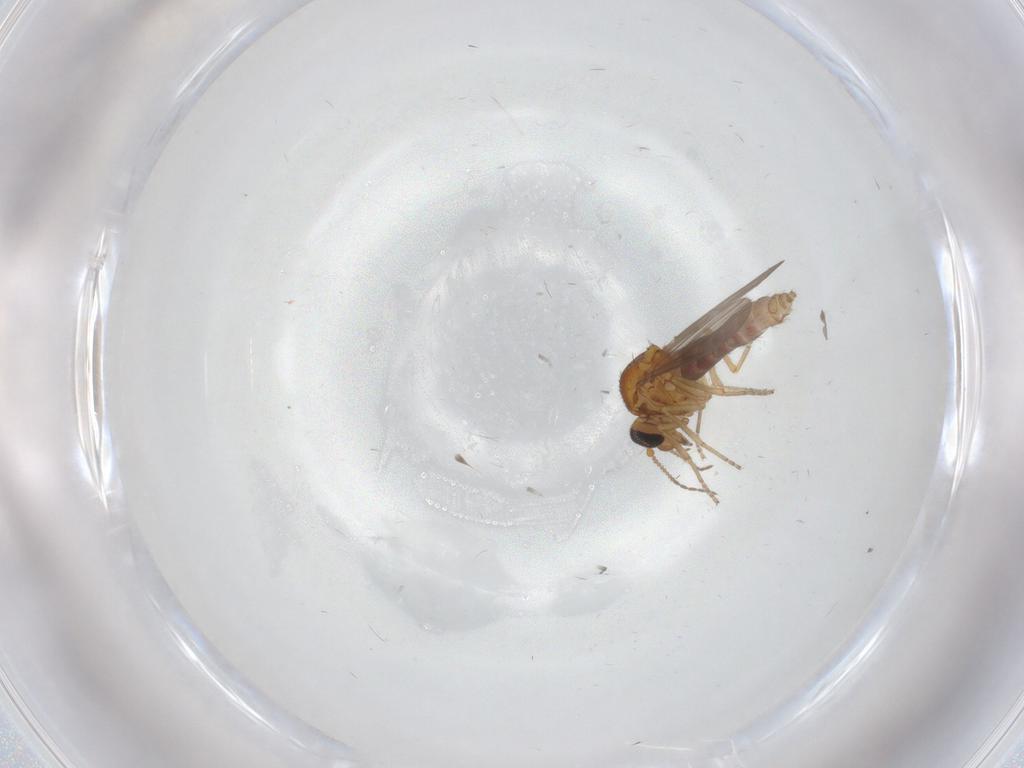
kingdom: Animalia
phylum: Arthropoda
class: Insecta
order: Diptera
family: Ceratopogonidae
